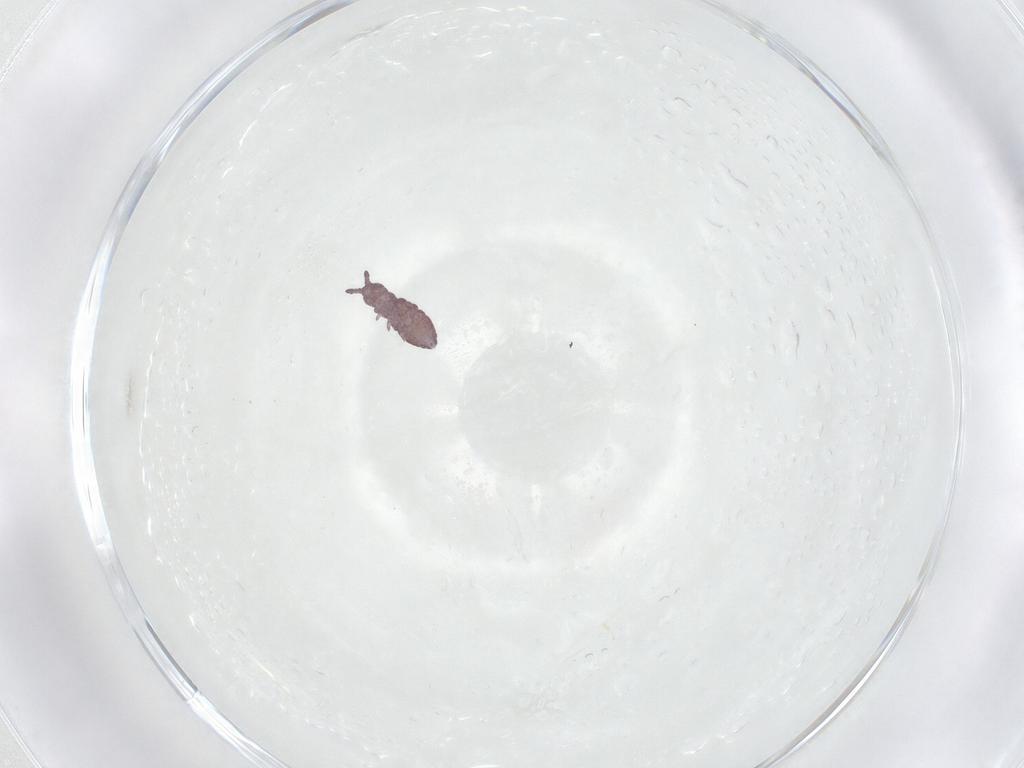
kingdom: Animalia
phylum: Arthropoda
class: Collembola
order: Poduromorpha
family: Hypogastruridae
